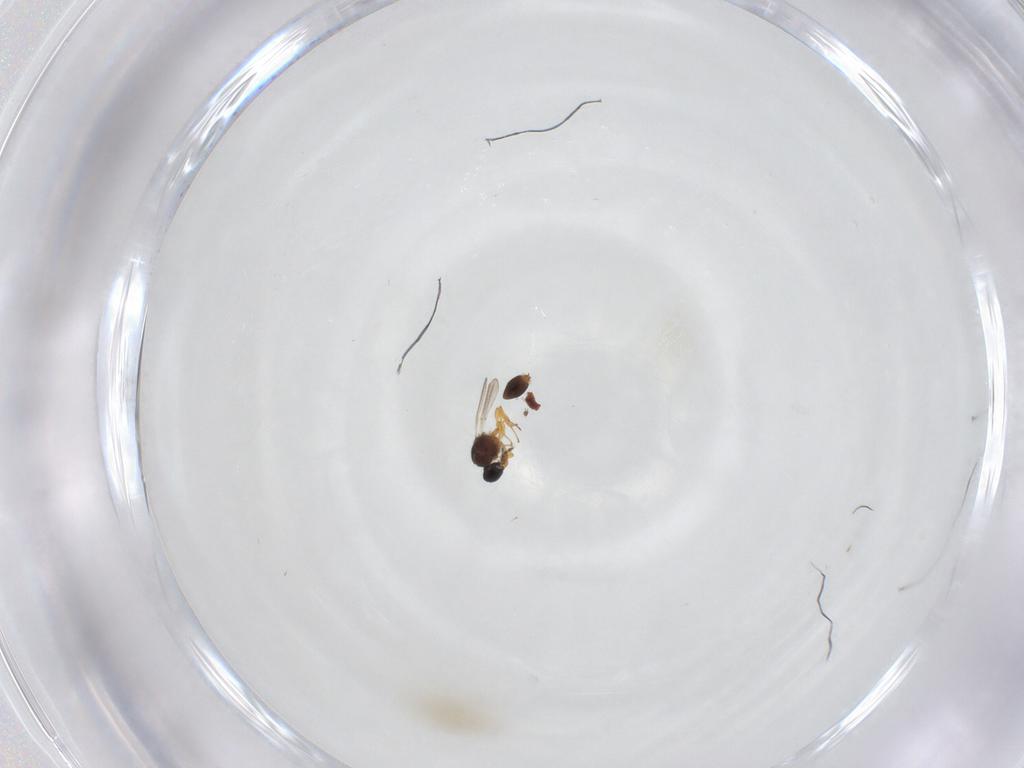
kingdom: Animalia
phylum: Arthropoda
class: Insecta
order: Hymenoptera
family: Platygastridae
